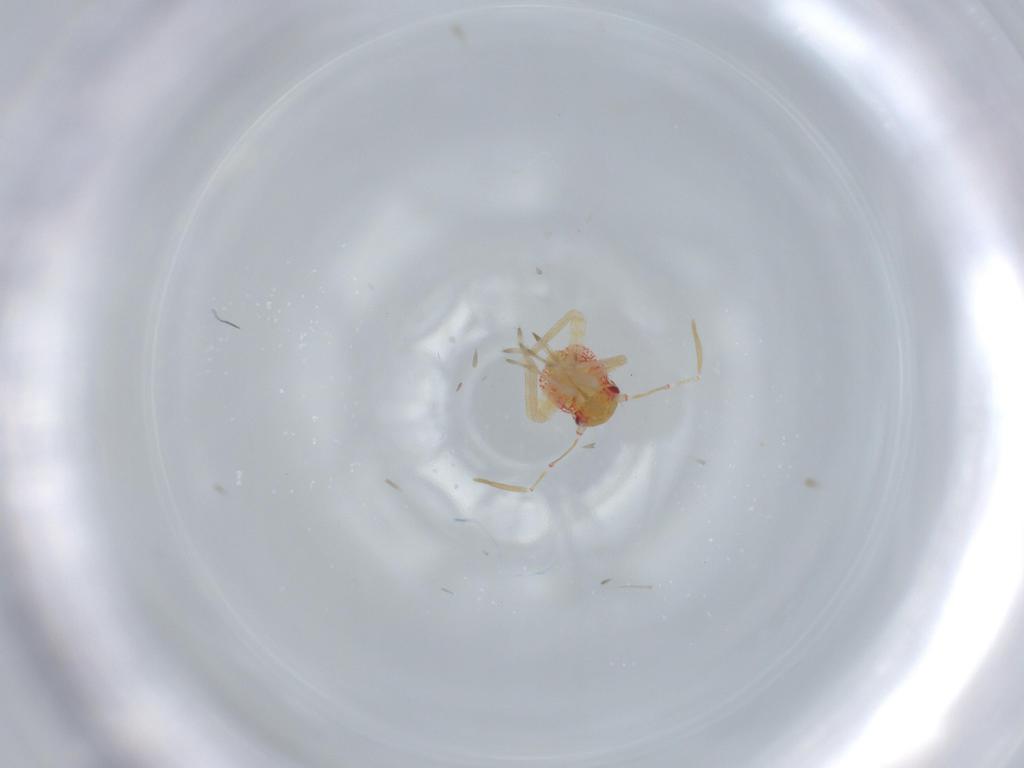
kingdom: Animalia
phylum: Arthropoda
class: Insecta
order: Hemiptera
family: Miridae
